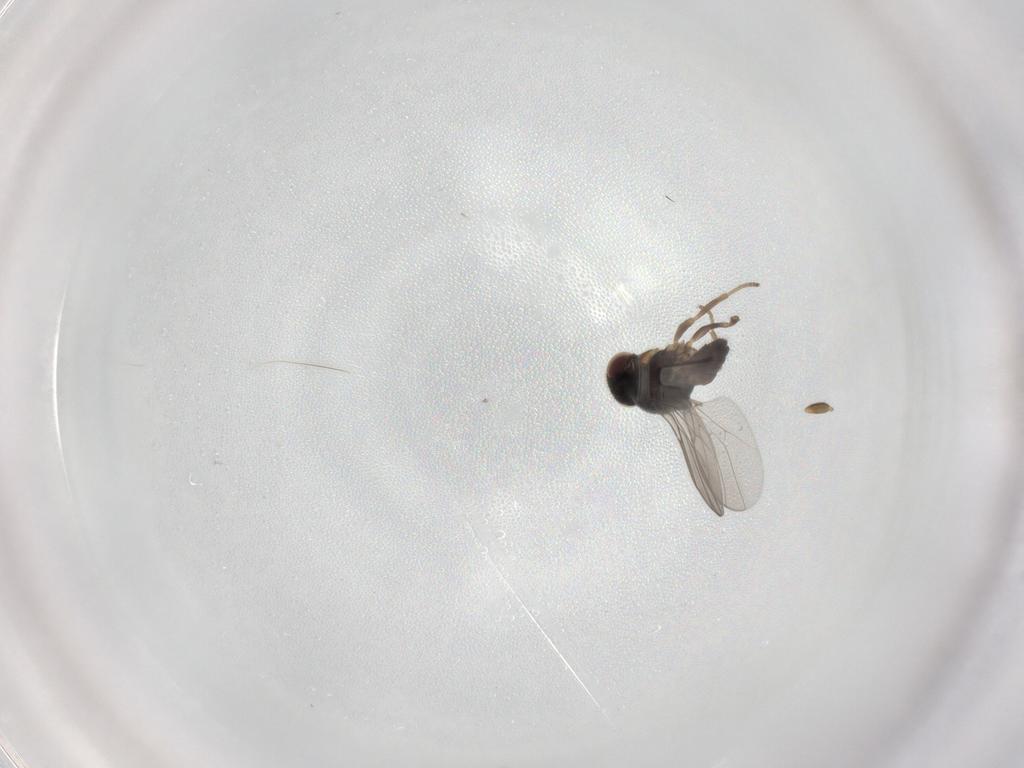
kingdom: Animalia
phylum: Arthropoda
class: Insecta
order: Diptera
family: Chloropidae
